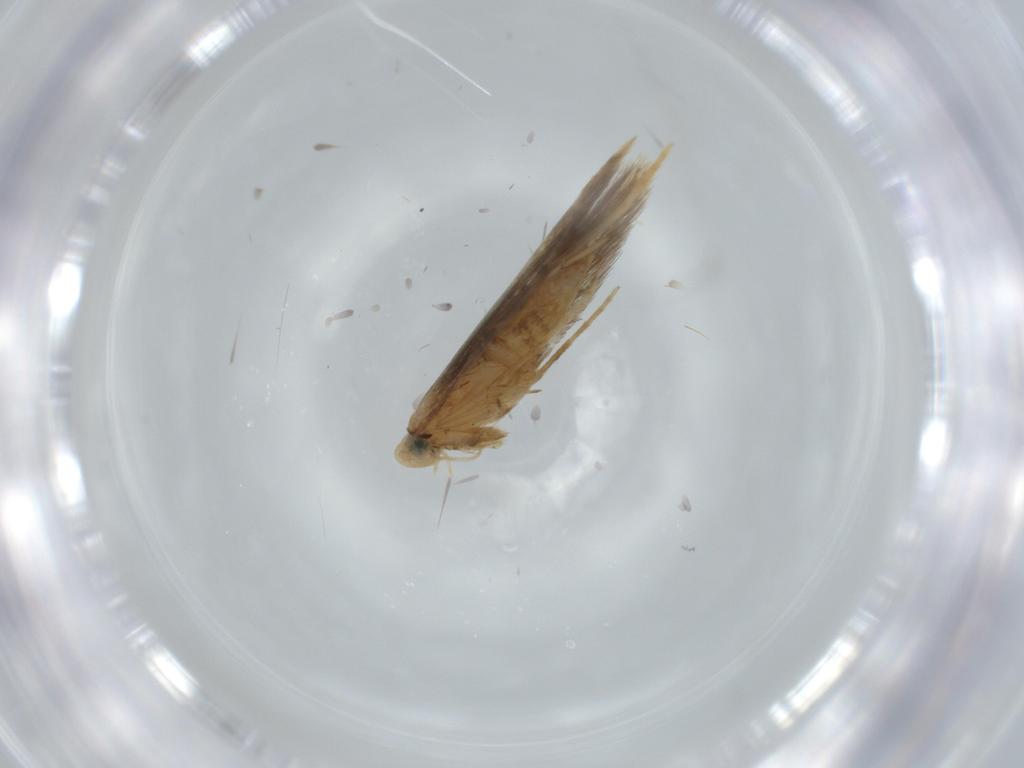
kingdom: Animalia
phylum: Arthropoda
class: Insecta
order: Lepidoptera
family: Tischeriidae
